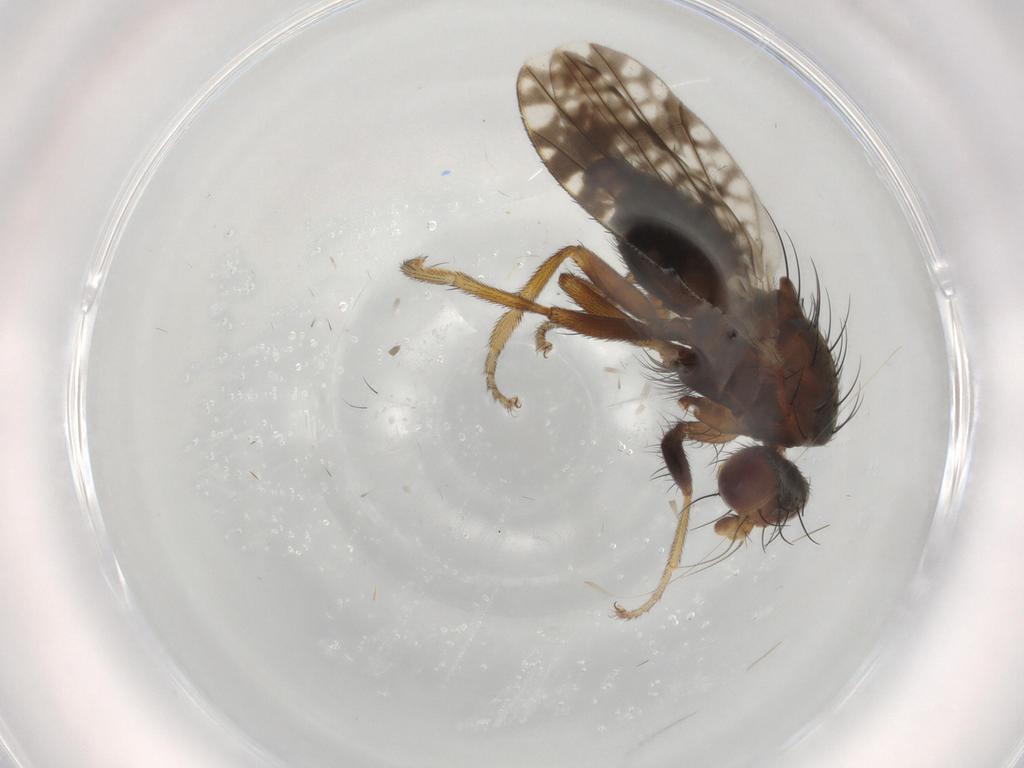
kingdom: Animalia
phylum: Arthropoda
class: Insecta
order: Diptera
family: Tephritidae
